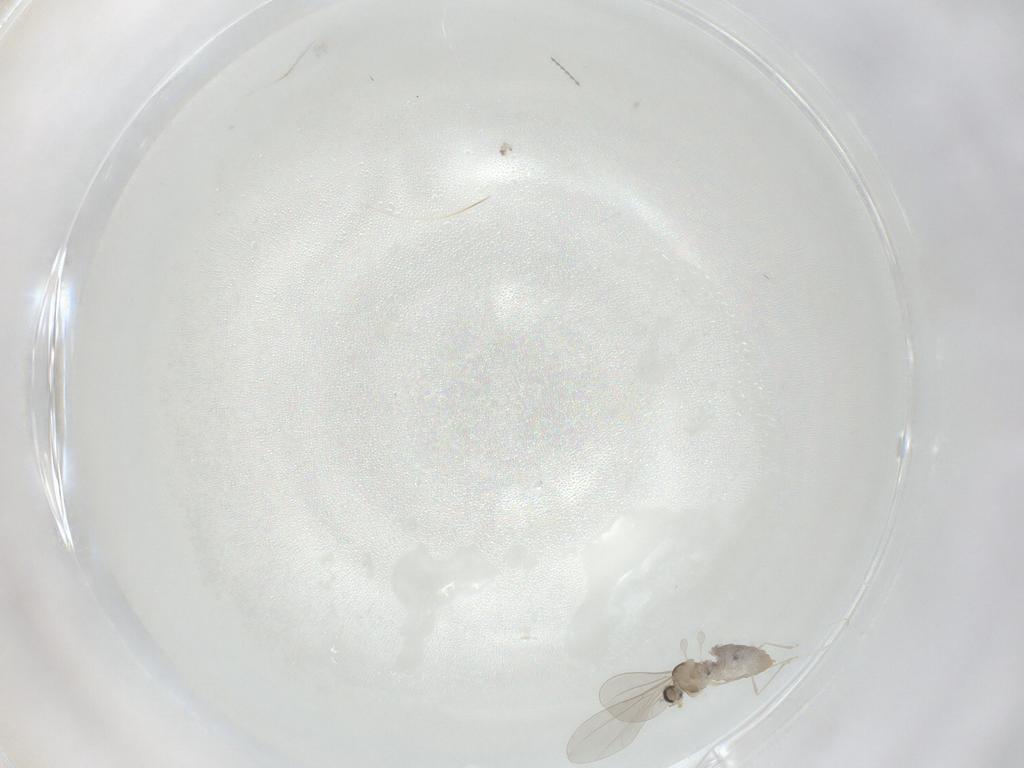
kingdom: Animalia
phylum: Arthropoda
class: Insecta
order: Diptera
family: Cecidomyiidae
